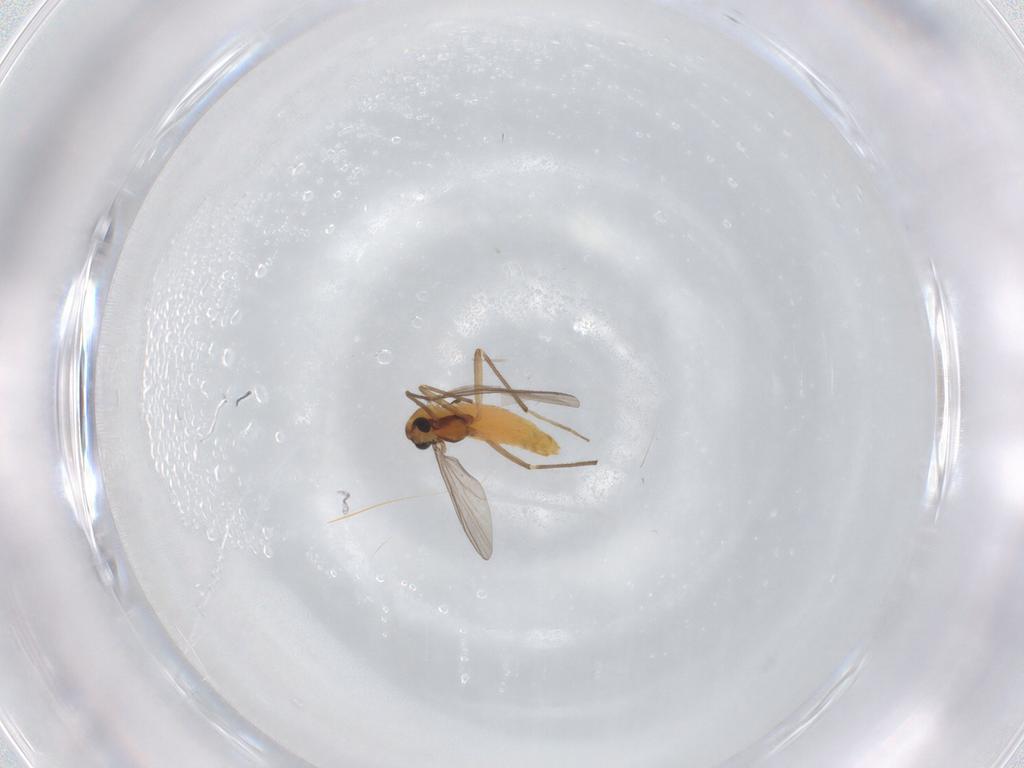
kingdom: Animalia
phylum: Arthropoda
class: Insecta
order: Diptera
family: Chironomidae
